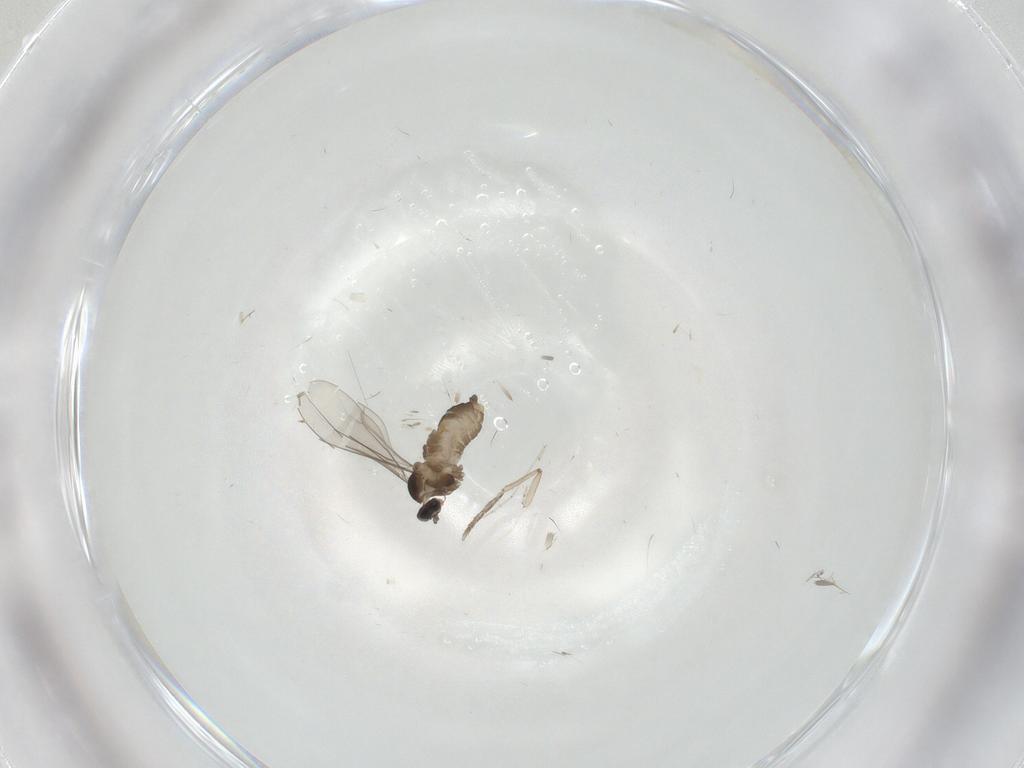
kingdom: Animalia
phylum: Arthropoda
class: Insecta
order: Diptera
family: Cecidomyiidae
